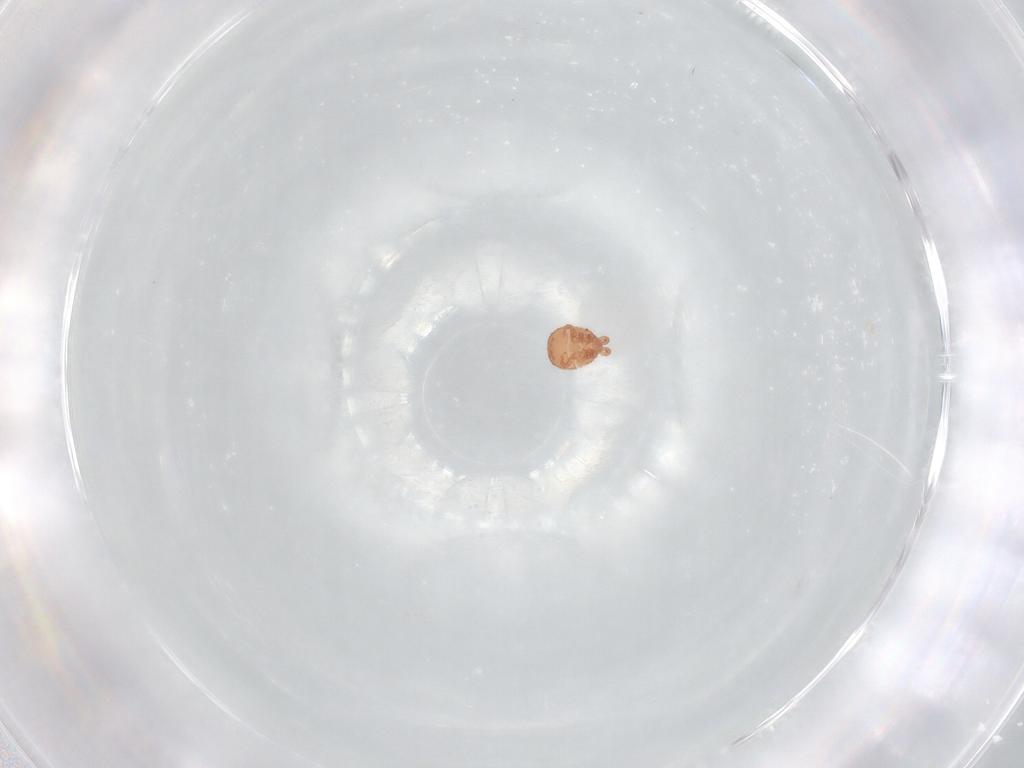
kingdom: Animalia
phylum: Arthropoda
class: Arachnida
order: Mesostigmata
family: Zerconidae
